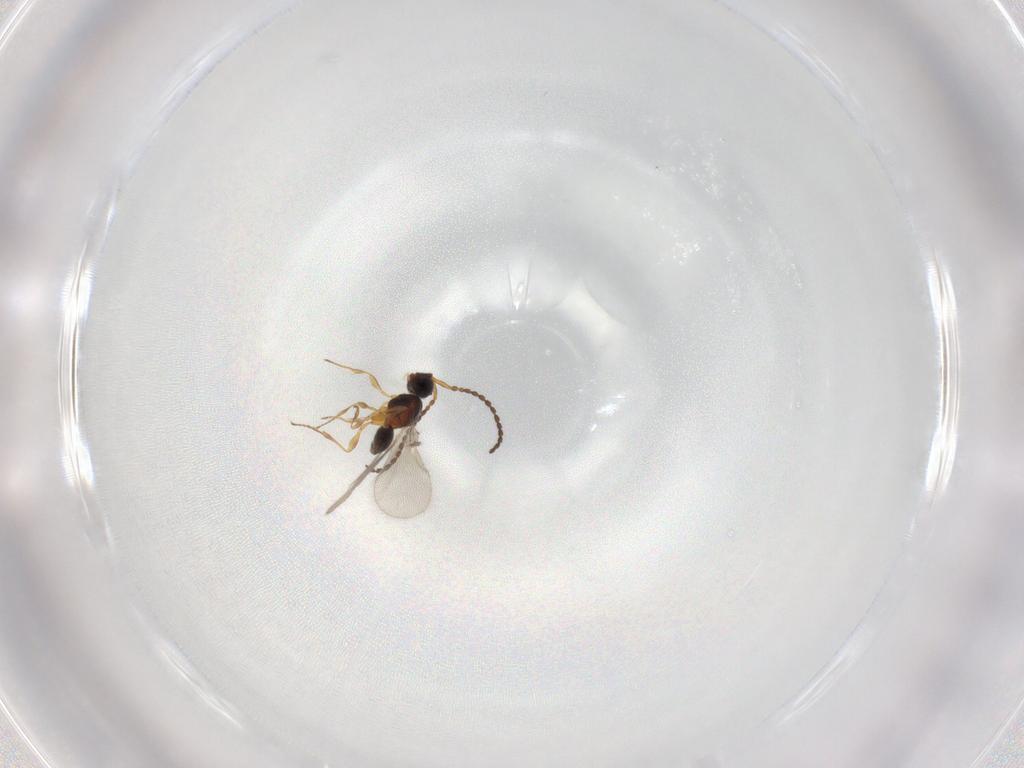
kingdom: Animalia
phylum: Arthropoda
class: Insecta
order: Hymenoptera
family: Diapriidae
